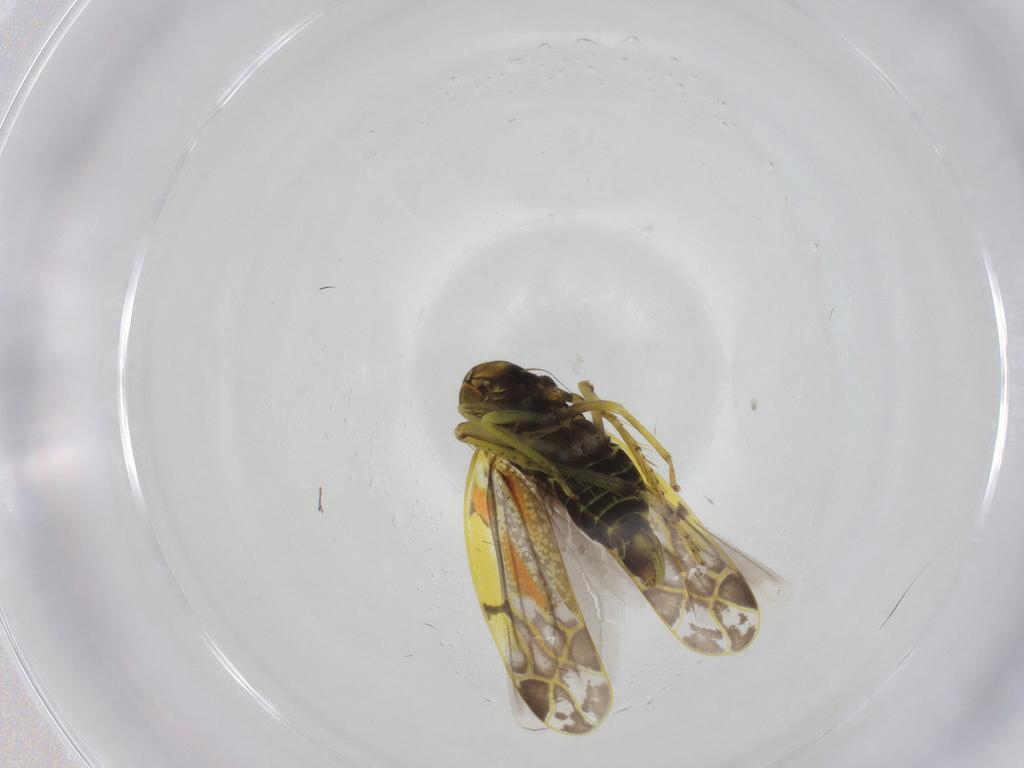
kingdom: Animalia
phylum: Arthropoda
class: Insecta
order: Hemiptera
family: Cicadellidae
